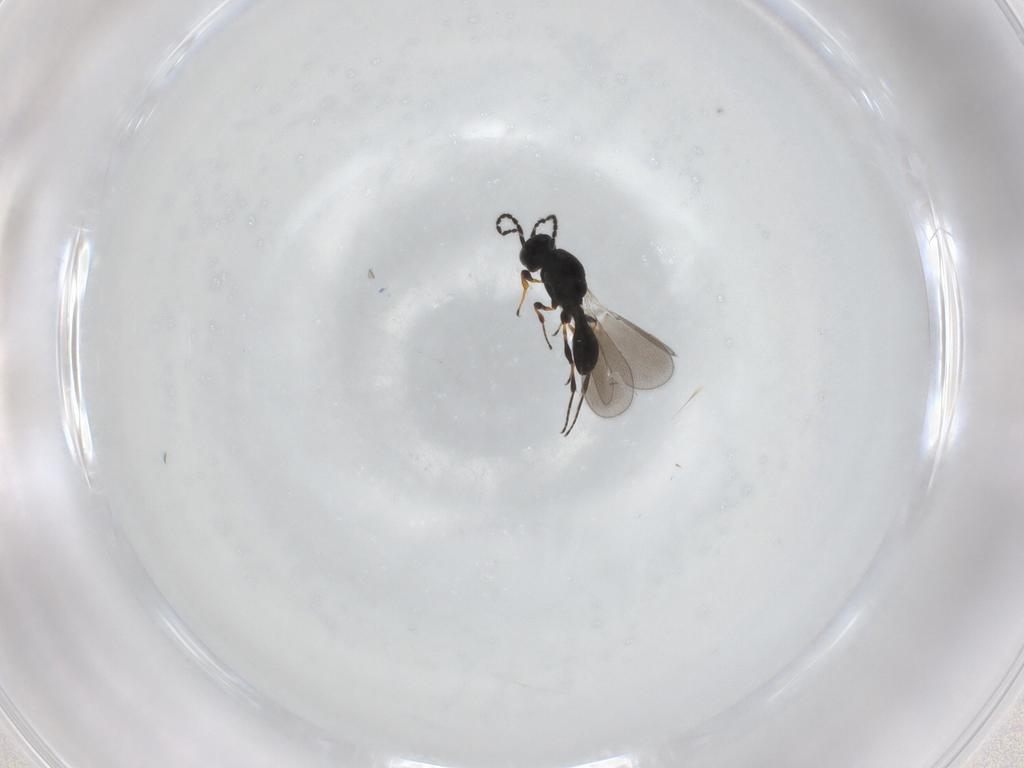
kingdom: Animalia
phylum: Arthropoda
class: Insecta
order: Hymenoptera
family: Platygastridae
